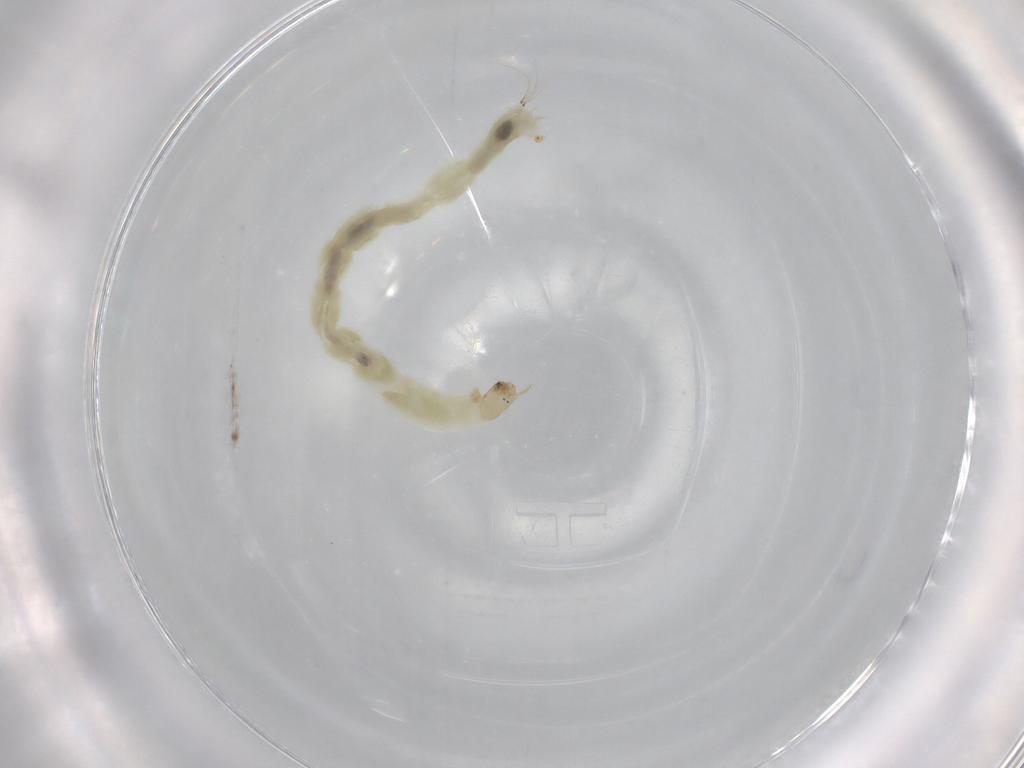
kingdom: Animalia
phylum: Arthropoda
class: Insecta
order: Diptera
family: Chironomidae
